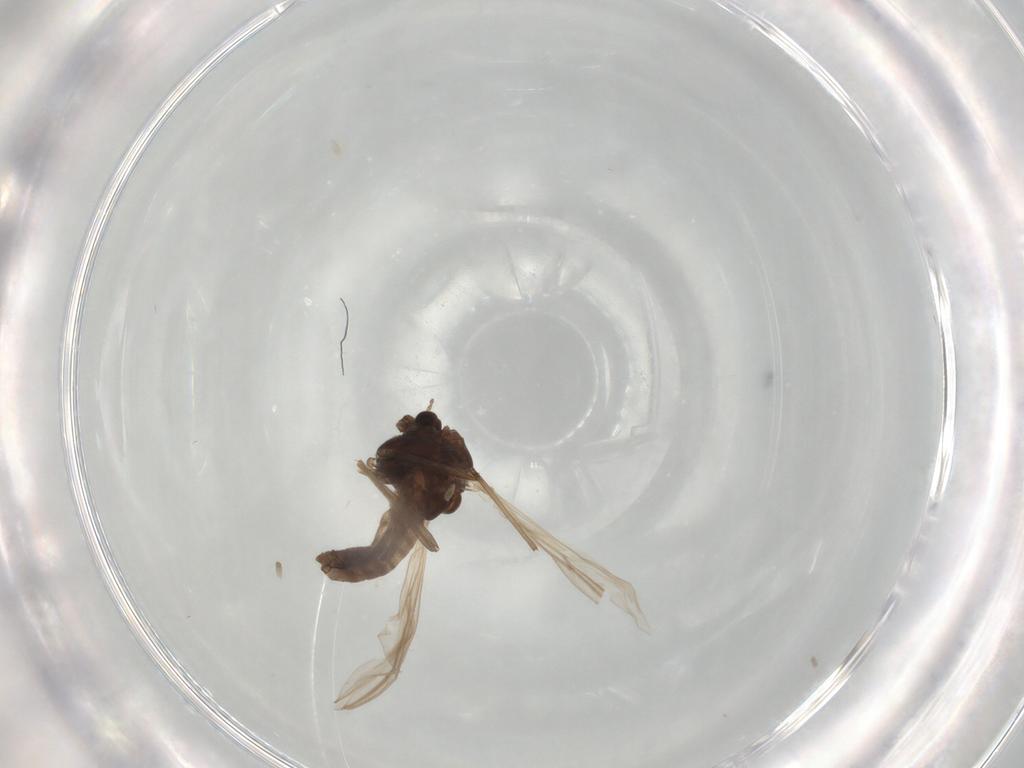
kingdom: Animalia
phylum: Arthropoda
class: Insecta
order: Diptera
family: Chironomidae
